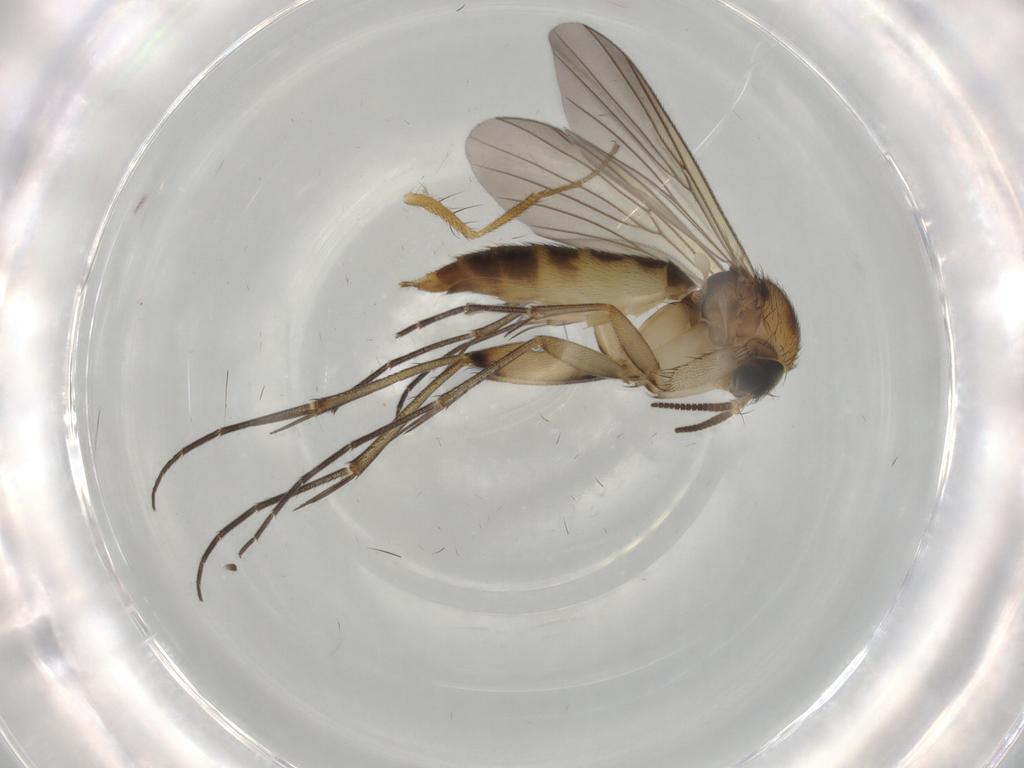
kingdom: Animalia
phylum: Arthropoda
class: Insecta
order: Diptera
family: Mycetophilidae
